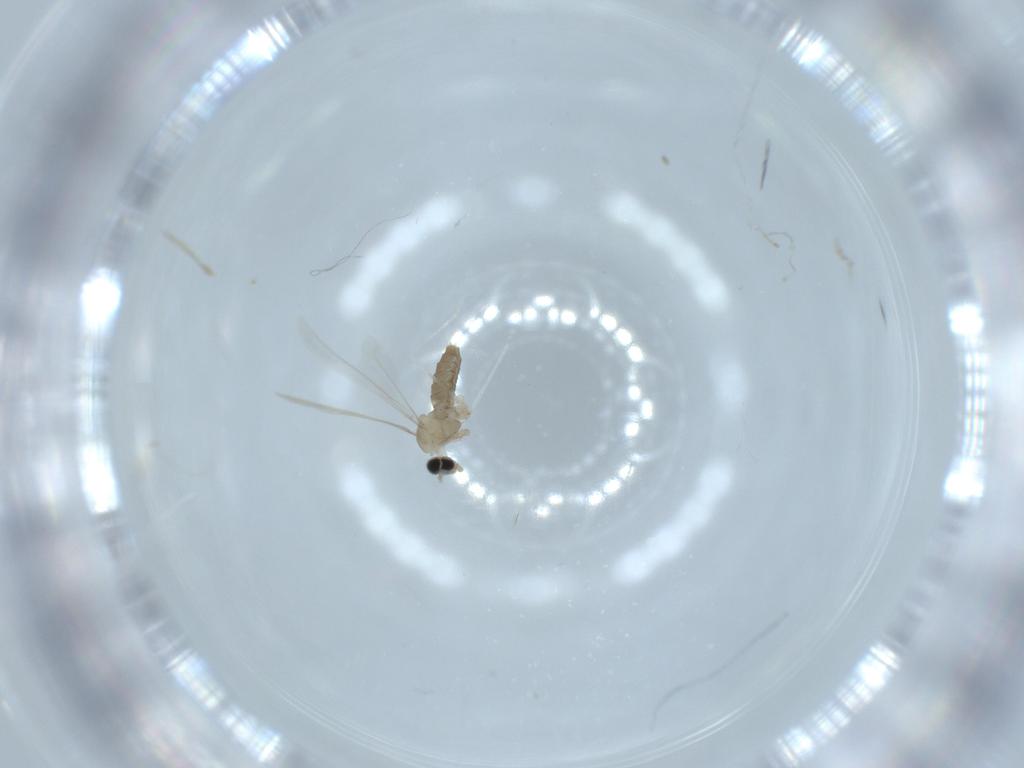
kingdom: Animalia
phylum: Arthropoda
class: Insecta
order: Diptera
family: Cecidomyiidae
